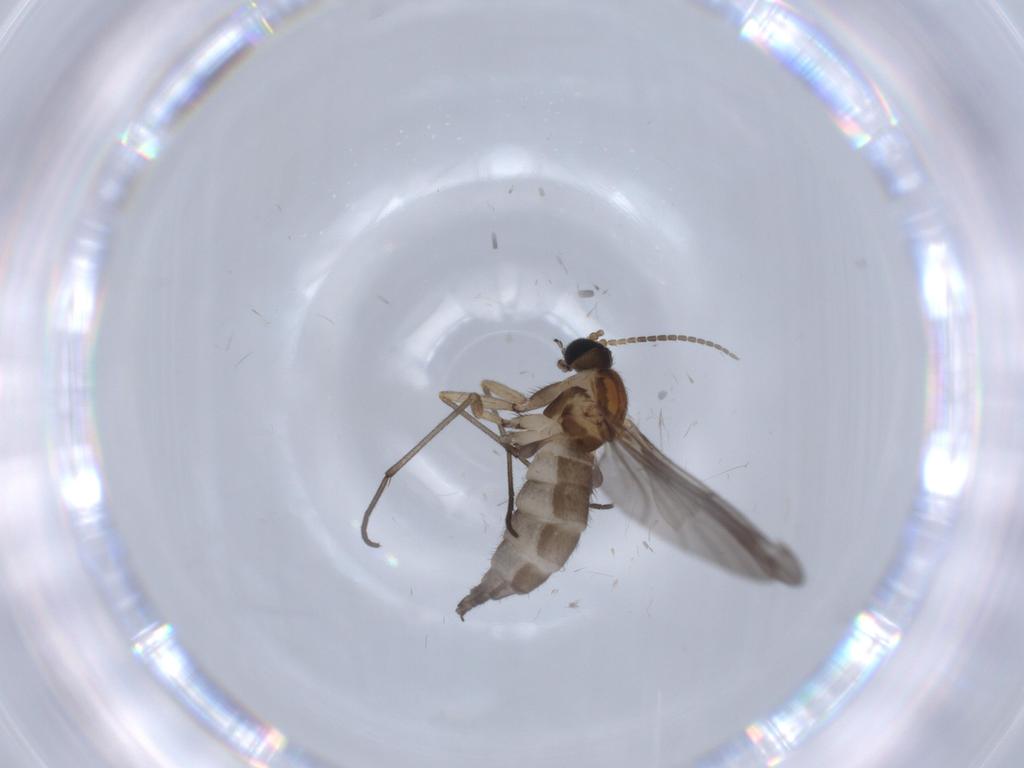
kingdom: Animalia
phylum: Arthropoda
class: Insecta
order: Diptera
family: Sciaridae
